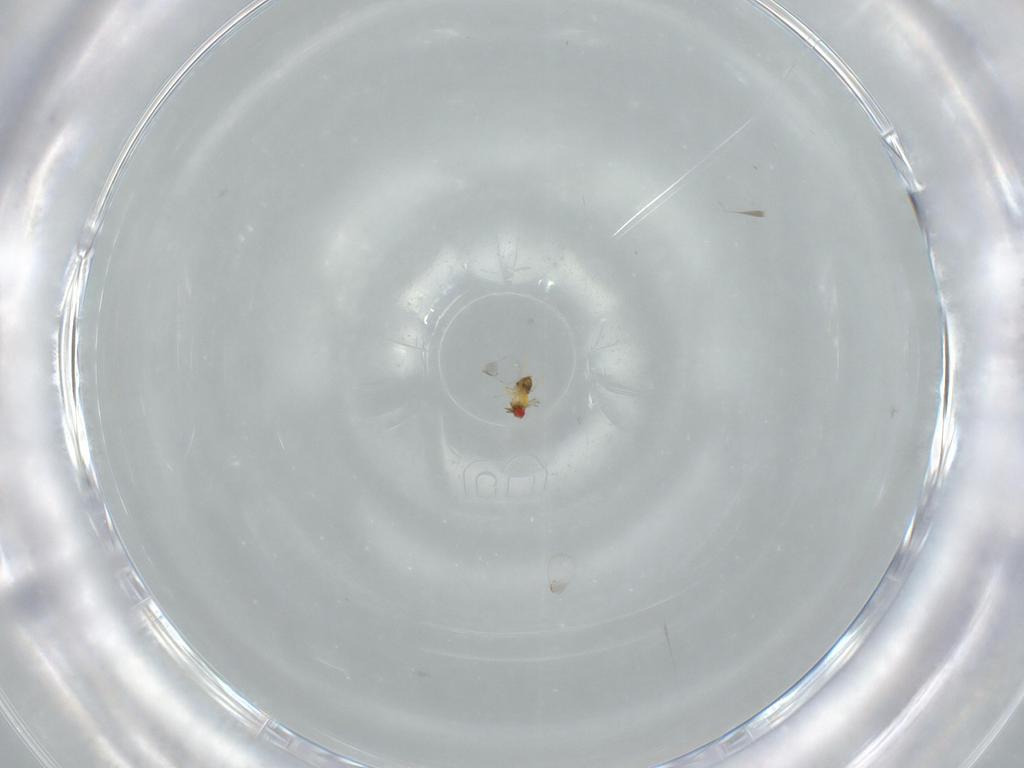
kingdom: Animalia
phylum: Arthropoda
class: Insecta
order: Hymenoptera
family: Trichogrammatidae
